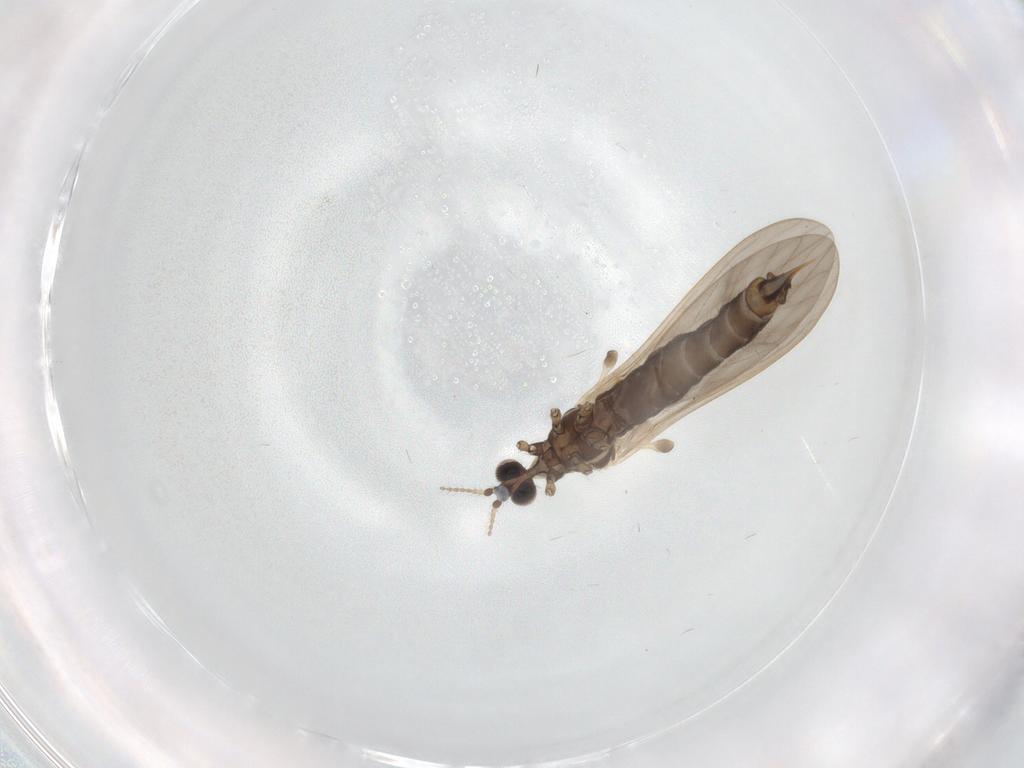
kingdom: Animalia
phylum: Arthropoda
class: Insecta
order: Diptera
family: Limoniidae
